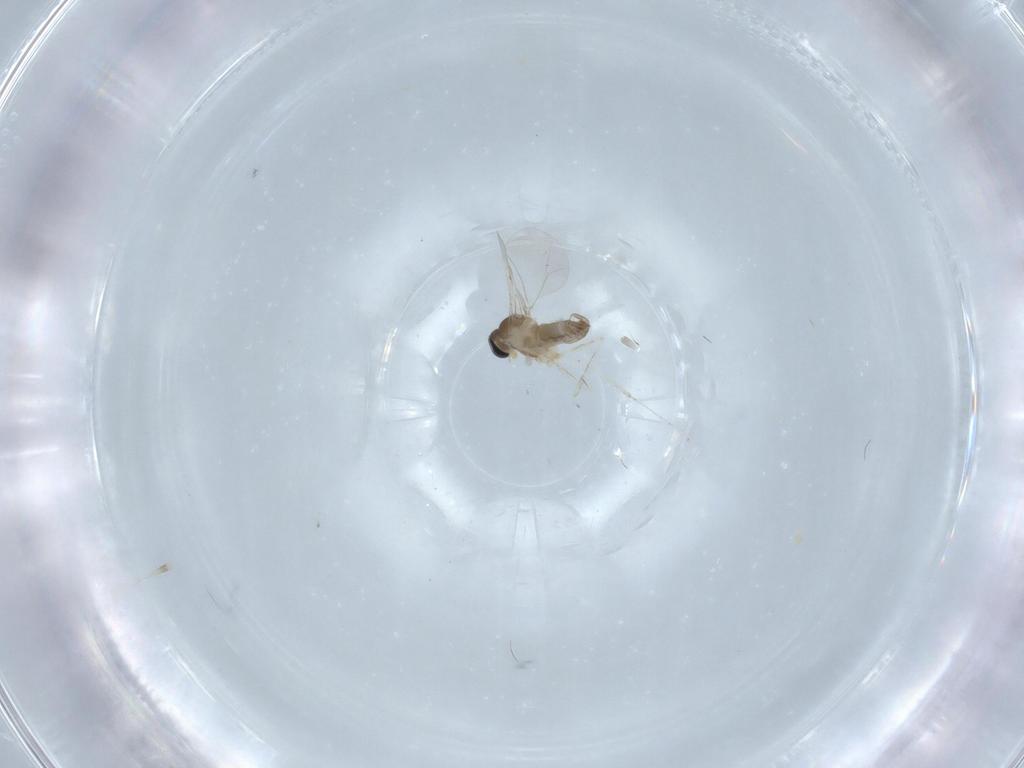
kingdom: Animalia
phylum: Arthropoda
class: Insecta
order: Diptera
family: Cecidomyiidae
